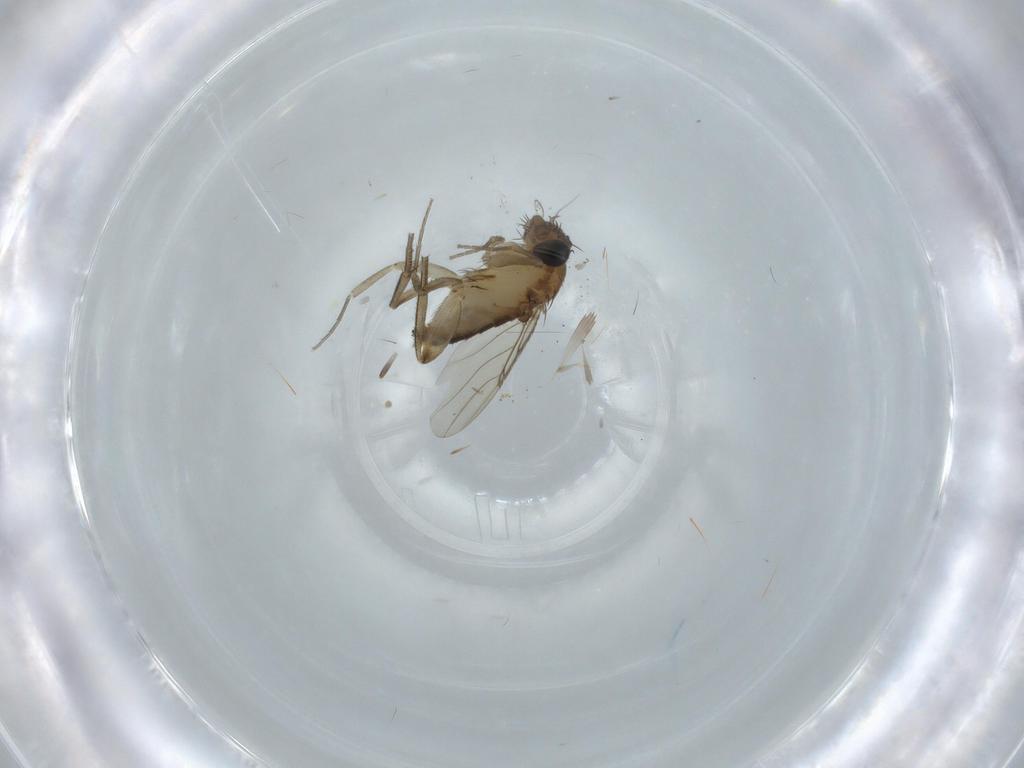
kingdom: Animalia
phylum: Arthropoda
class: Insecta
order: Diptera
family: Phoridae
